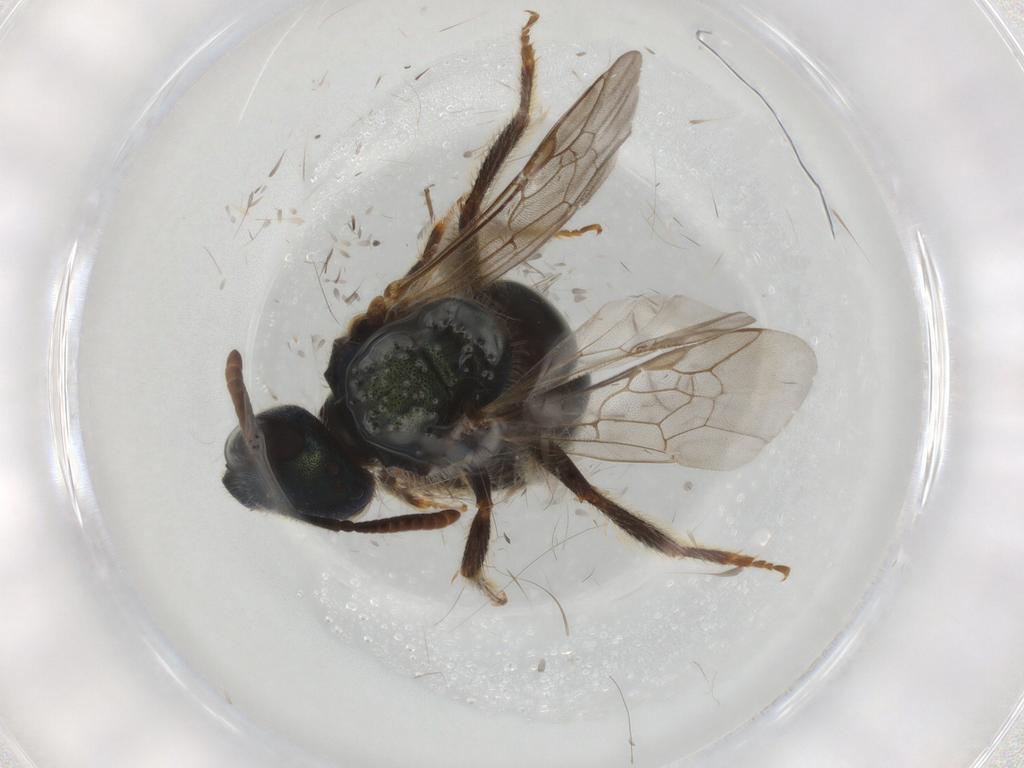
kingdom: Animalia
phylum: Arthropoda
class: Insecta
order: Hymenoptera
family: Halictidae
